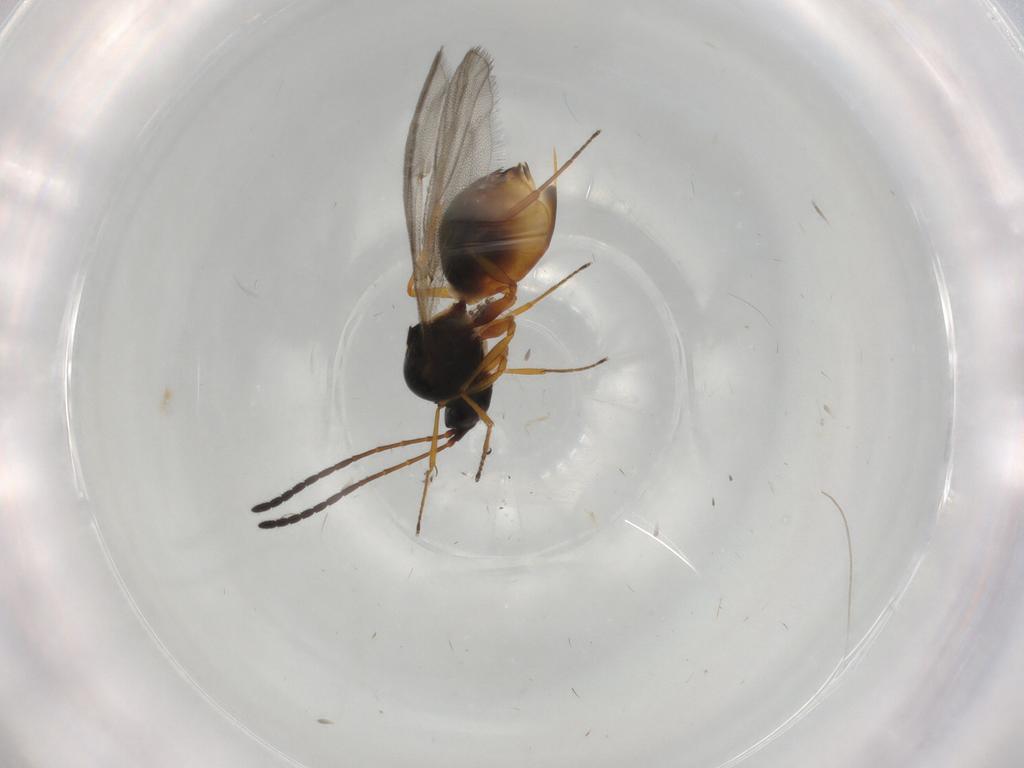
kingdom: Animalia
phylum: Arthropoda
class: Insecta
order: Hymenoptera
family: Figitidae
